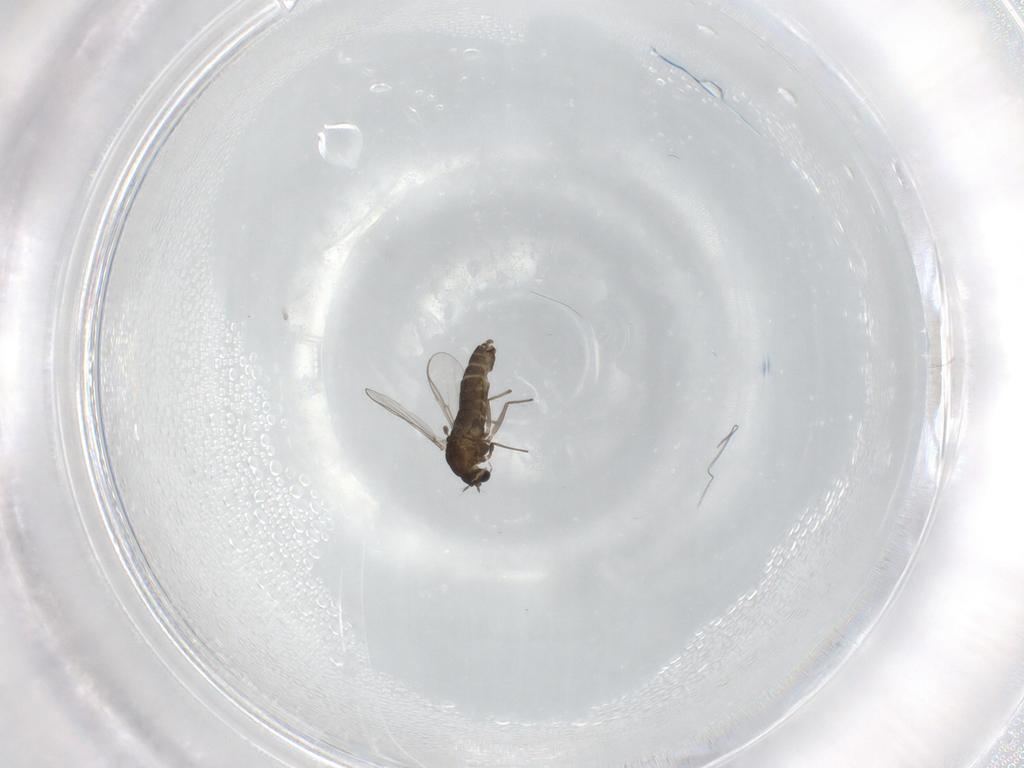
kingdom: Animalia
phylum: Arthropoda
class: Insecta
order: Diptera
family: Chironomidae
